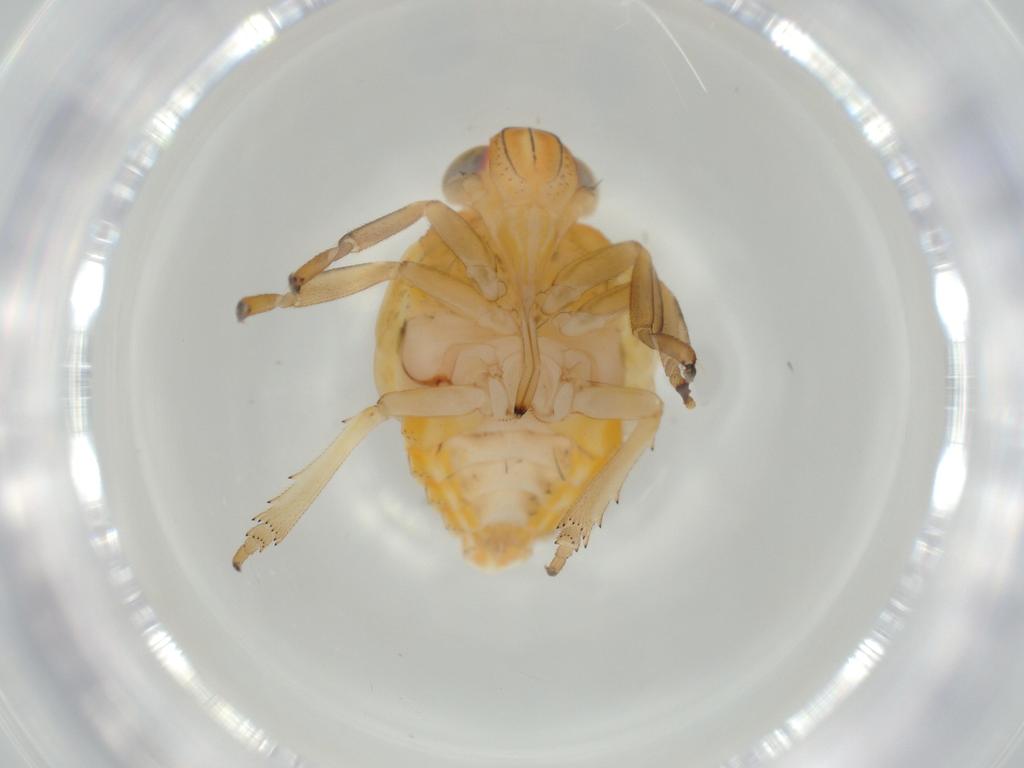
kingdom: Animalia
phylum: Arthropoda
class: Insecta
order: Hemiptera
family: Issidae
